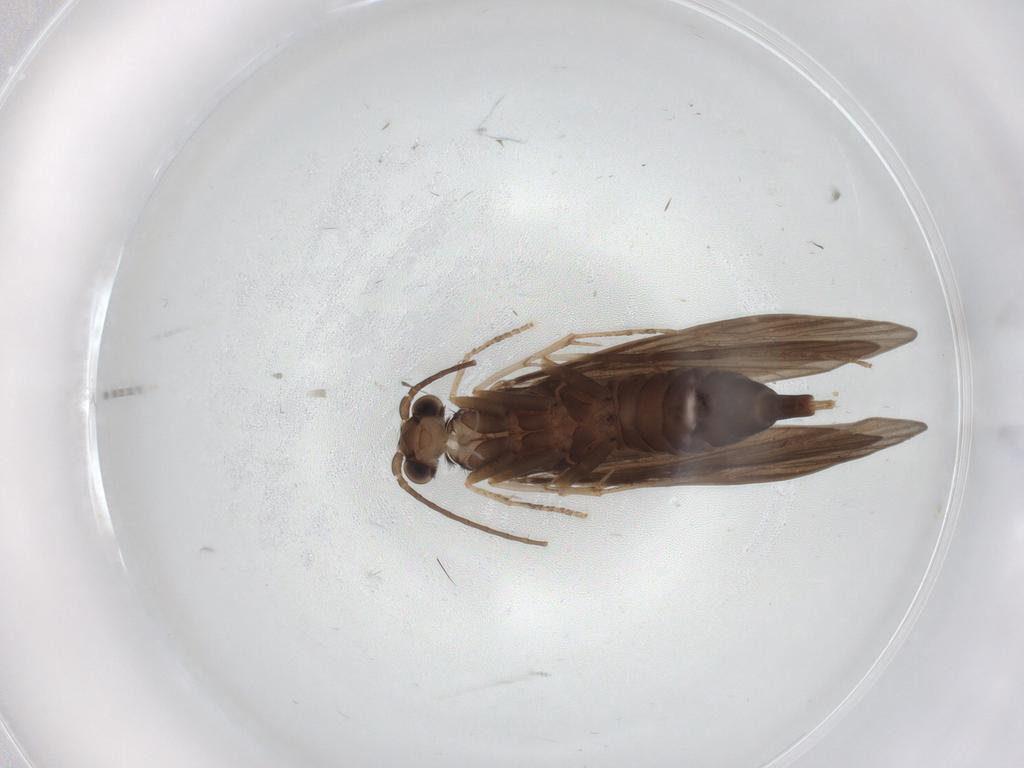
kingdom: Animalia
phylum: Arthropoda
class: Insecta
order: Trichoptera
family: Xiphocentronidae
